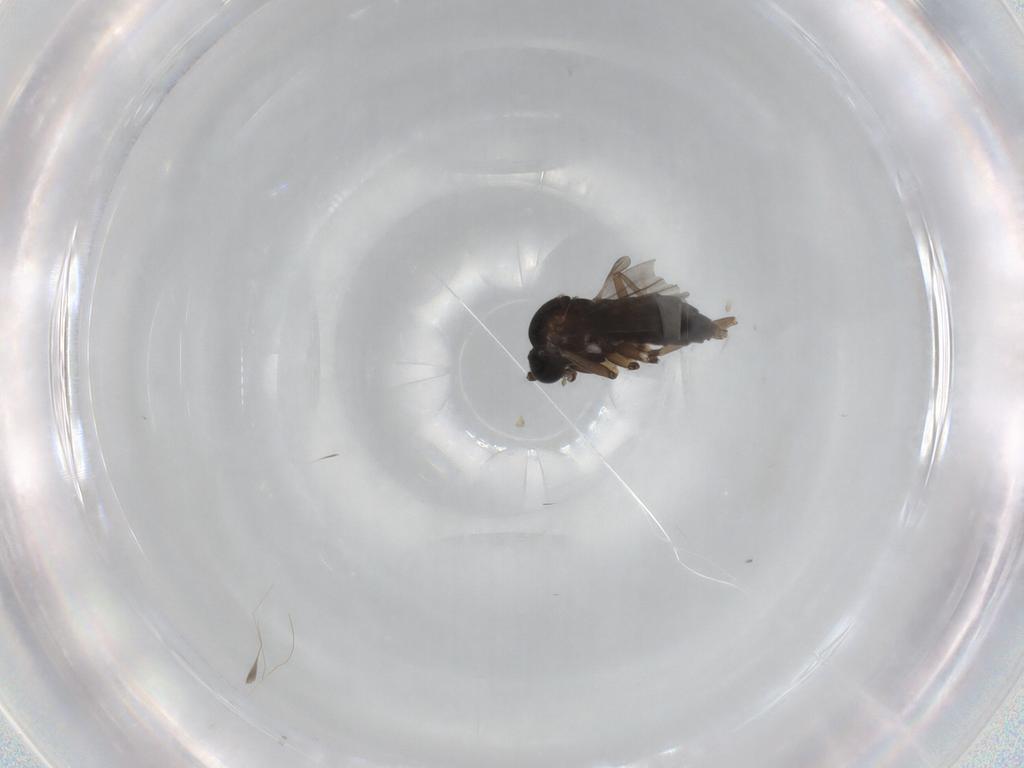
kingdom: Animalia
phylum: Arthropoda
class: Insecta
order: Diptera
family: Sciaridae
